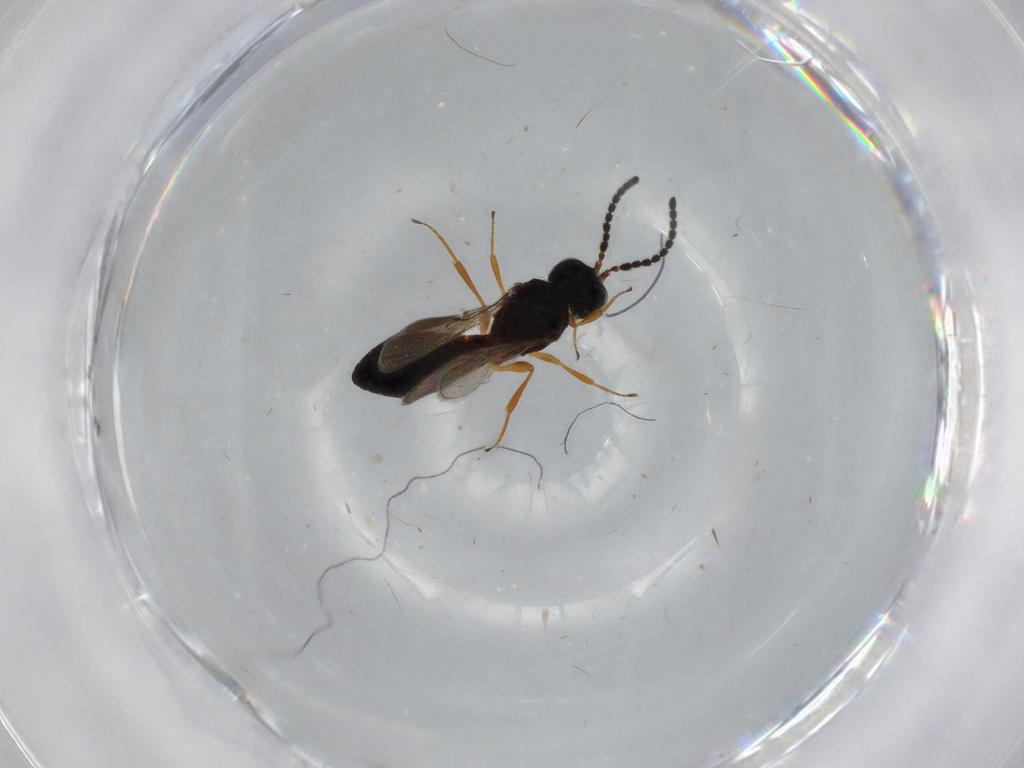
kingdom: Animalia
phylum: Arthropoda
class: Insecta
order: Hymenoptera
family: Scelionidae
